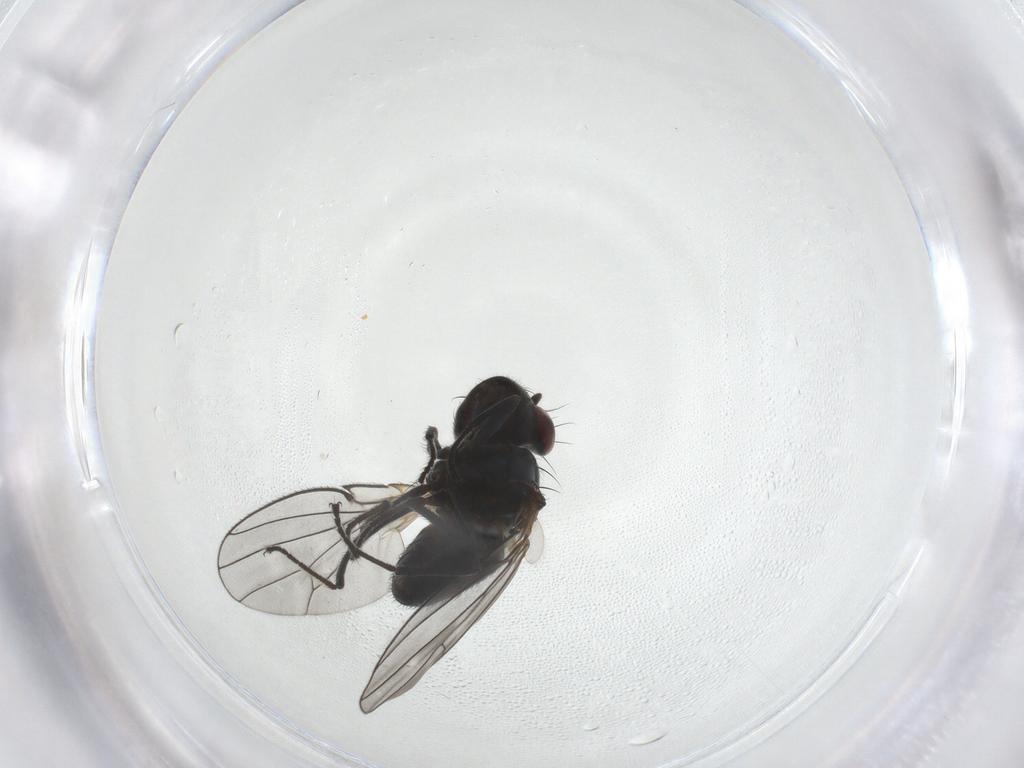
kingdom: Animalia
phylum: Arthropoda
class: Insecta
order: Diptera
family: Ephydridae
